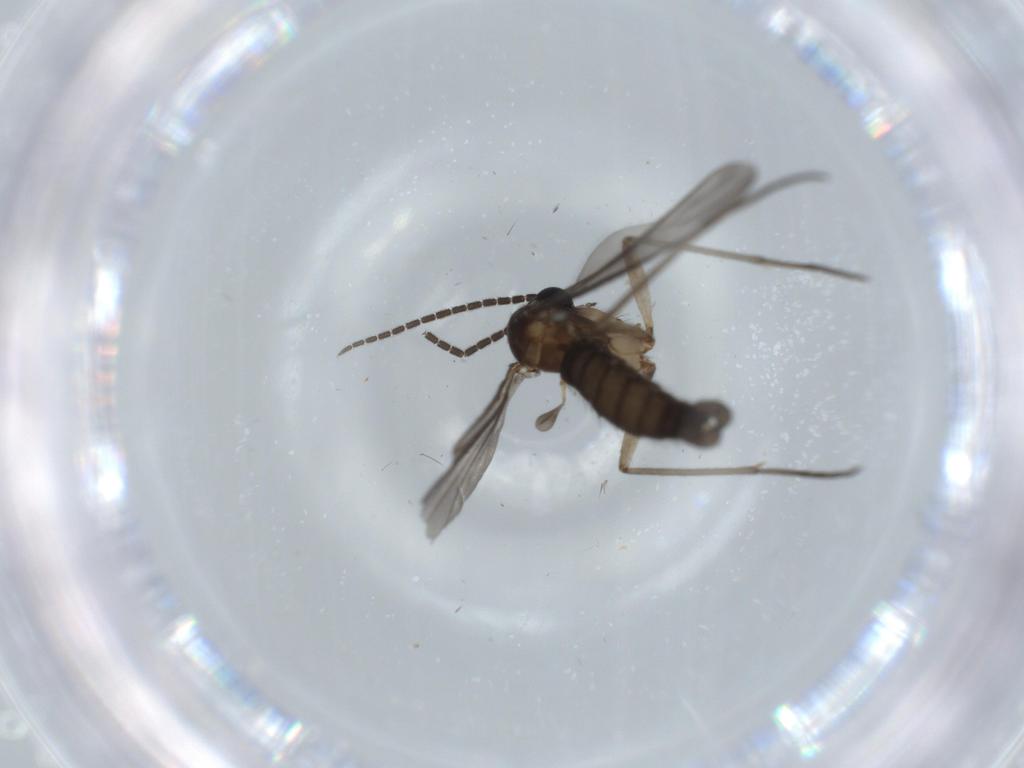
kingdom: Animalia
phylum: Arthropoda
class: Insecta
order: Diptera
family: Sciaridae
